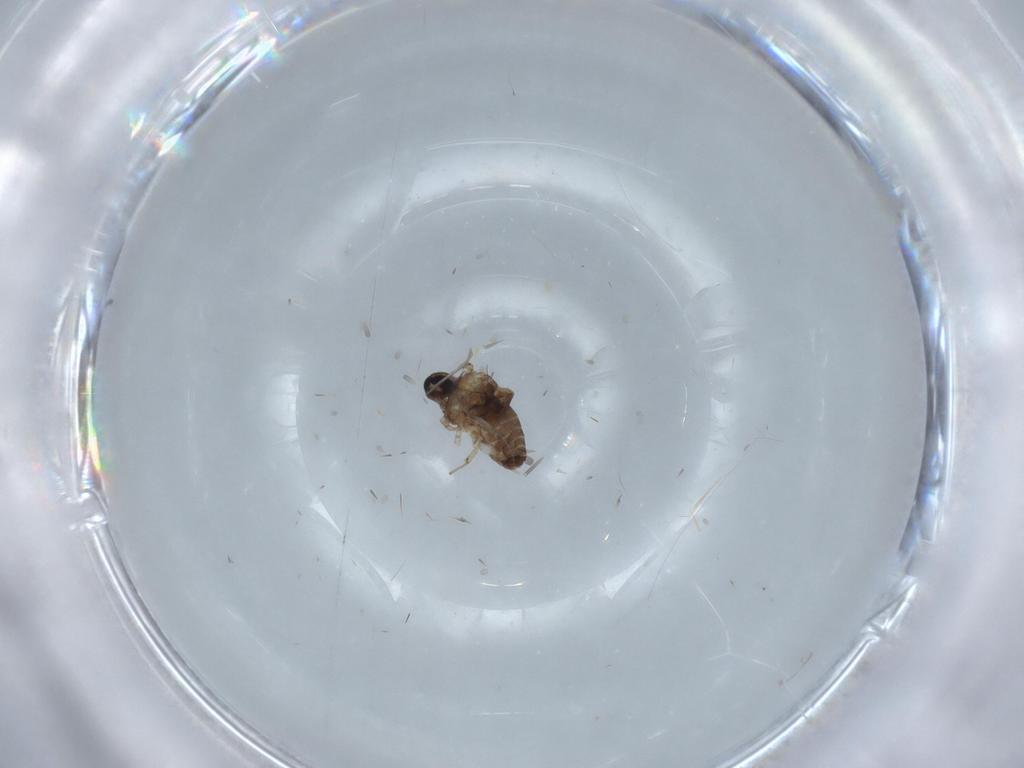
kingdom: Animalia
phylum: Arthropoda
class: Insecta
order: Diptera
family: Ceratopogonidae
